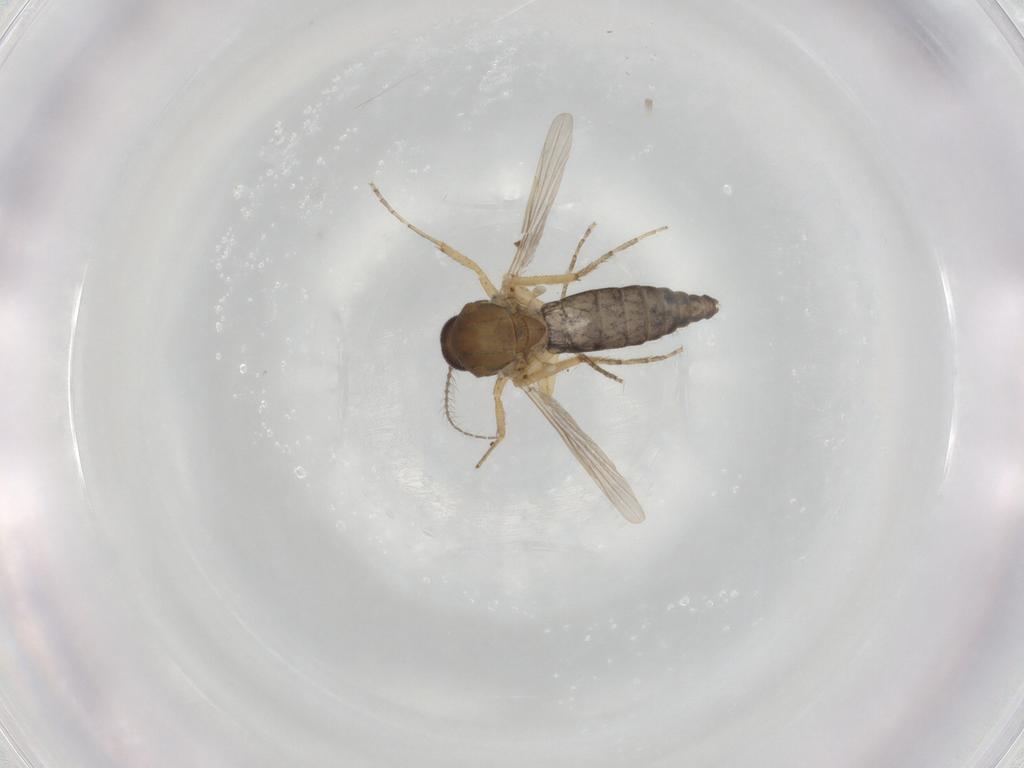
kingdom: Animalia
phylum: Arthropoda
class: Insecta
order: Diptera
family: Ceratopogonidae
